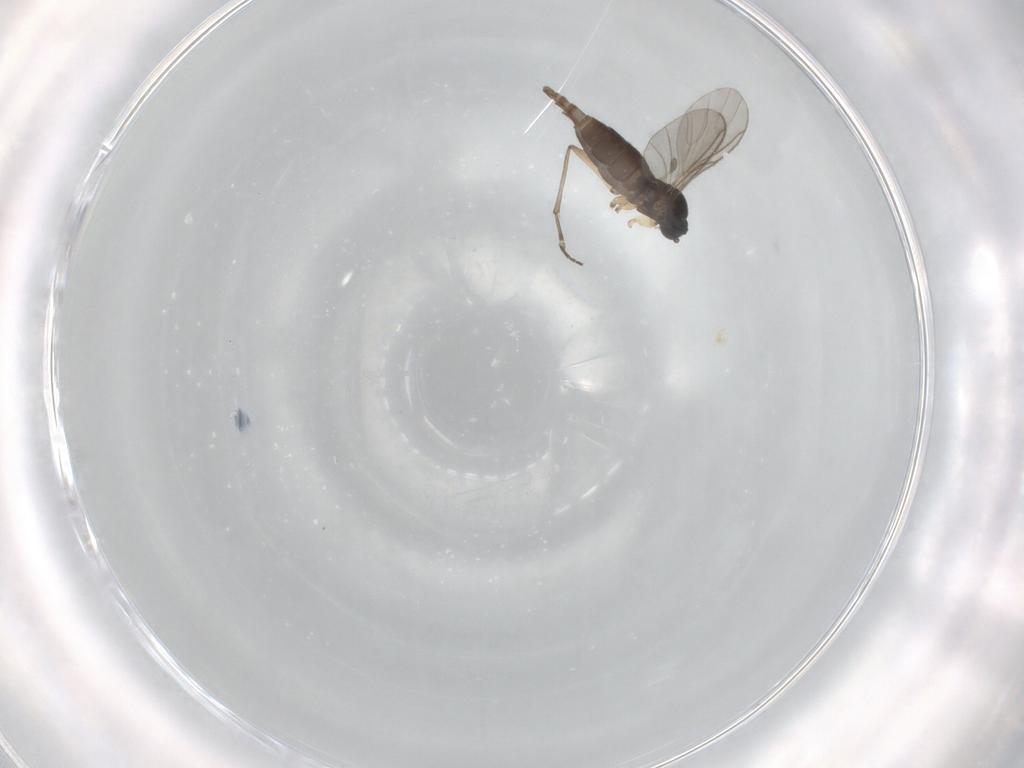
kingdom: Animalia
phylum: Arthropoda
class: Insecta
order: Diptera
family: Sciaridae
